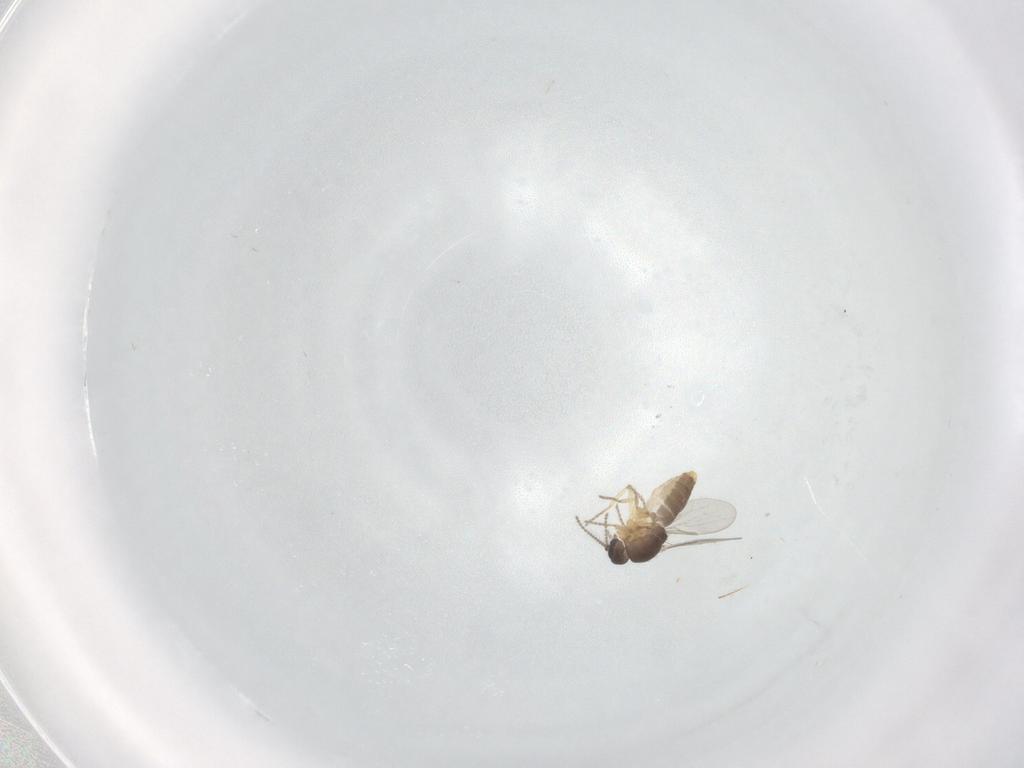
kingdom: Animalia
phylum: Arthropoda
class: Insecta
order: Diptera
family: Ceratopogonidae
